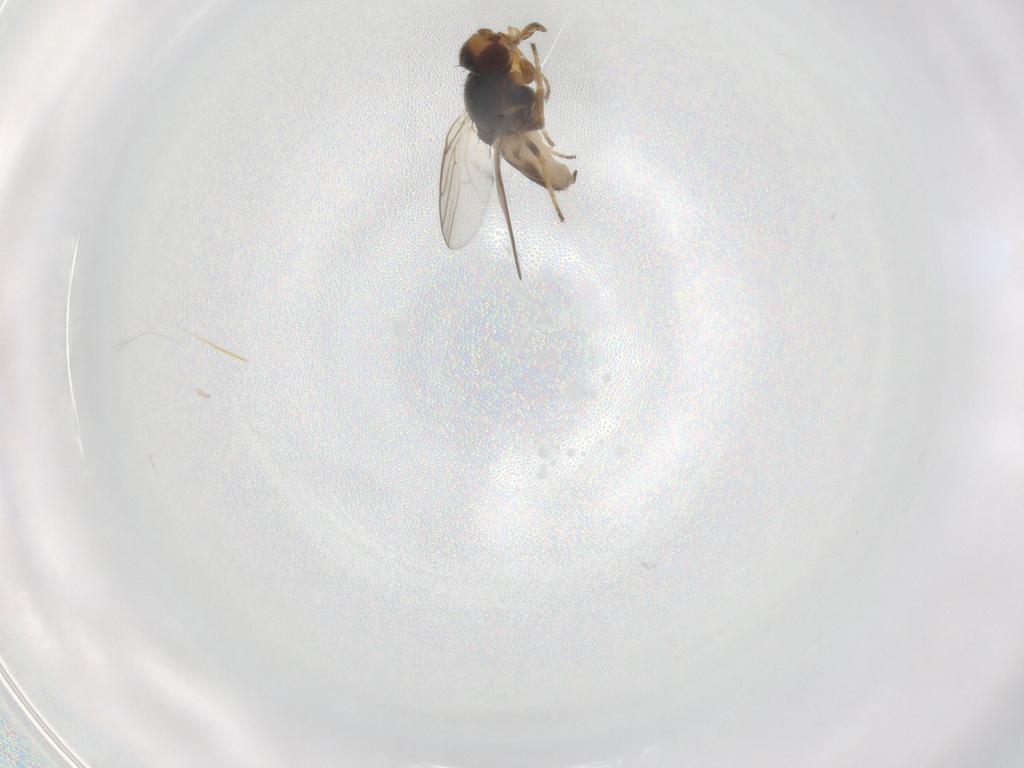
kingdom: Animalia
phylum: Arthropoda
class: Insecta
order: Diptera
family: Chloropidae
